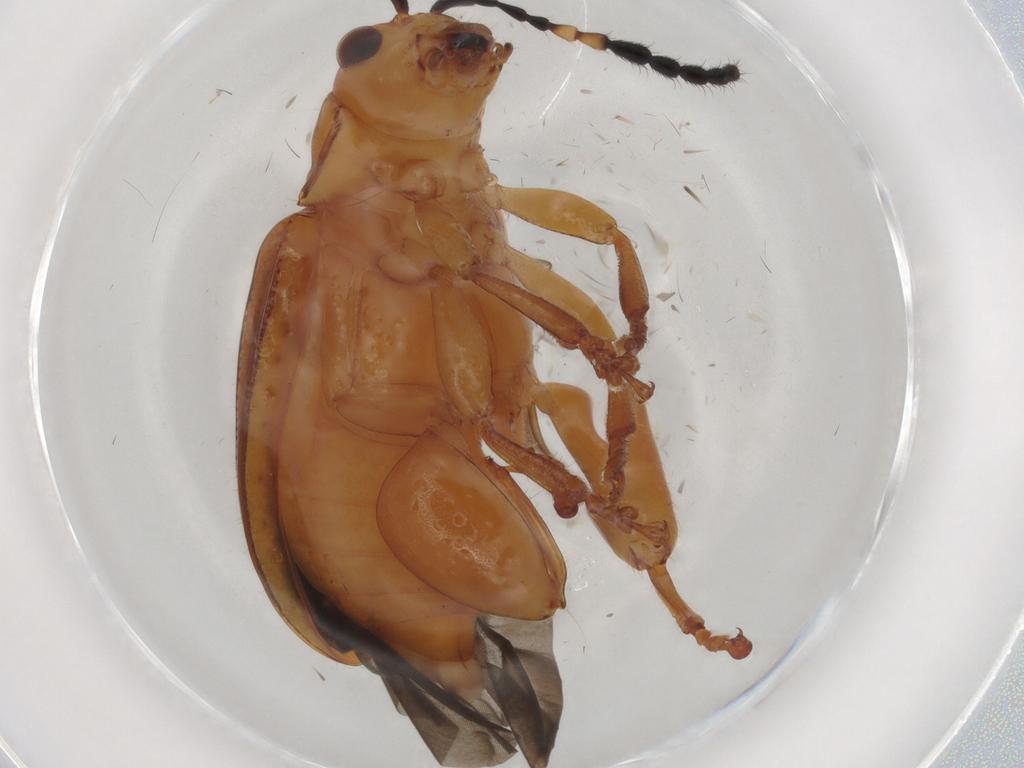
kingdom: Animalia
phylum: Arthropoda
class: Insecta
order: Coleoptera
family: Chrysomelidae
